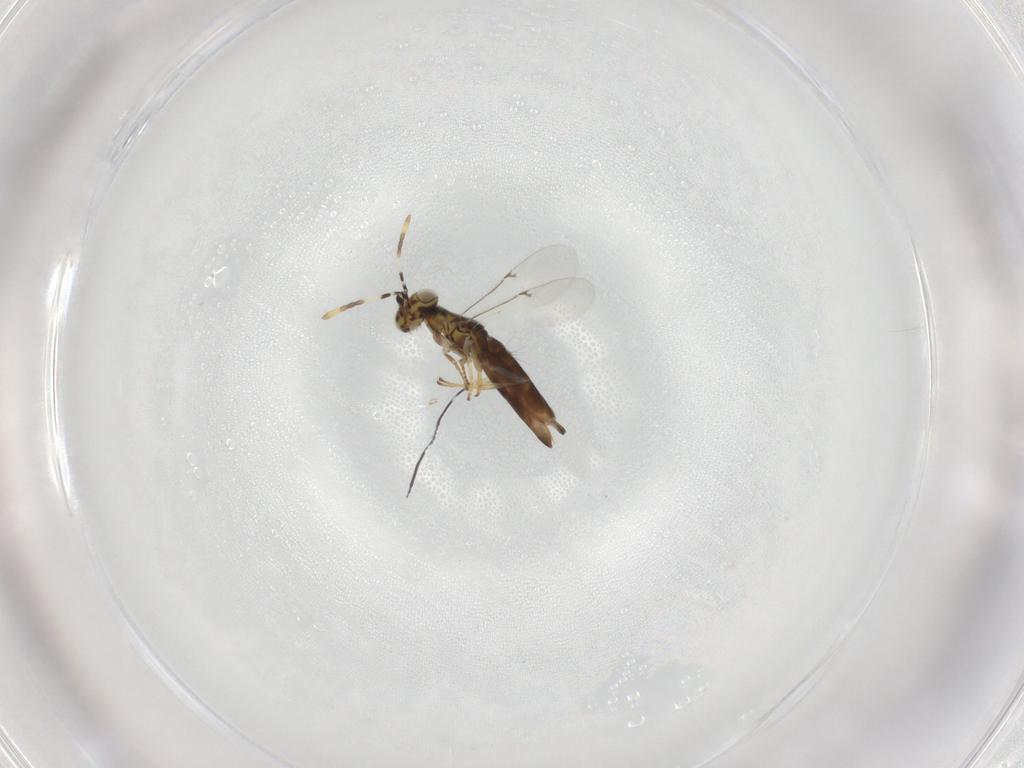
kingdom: Animalia
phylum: Arthropoda
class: Insecta
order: Hymenoptera
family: Encyrtidae
